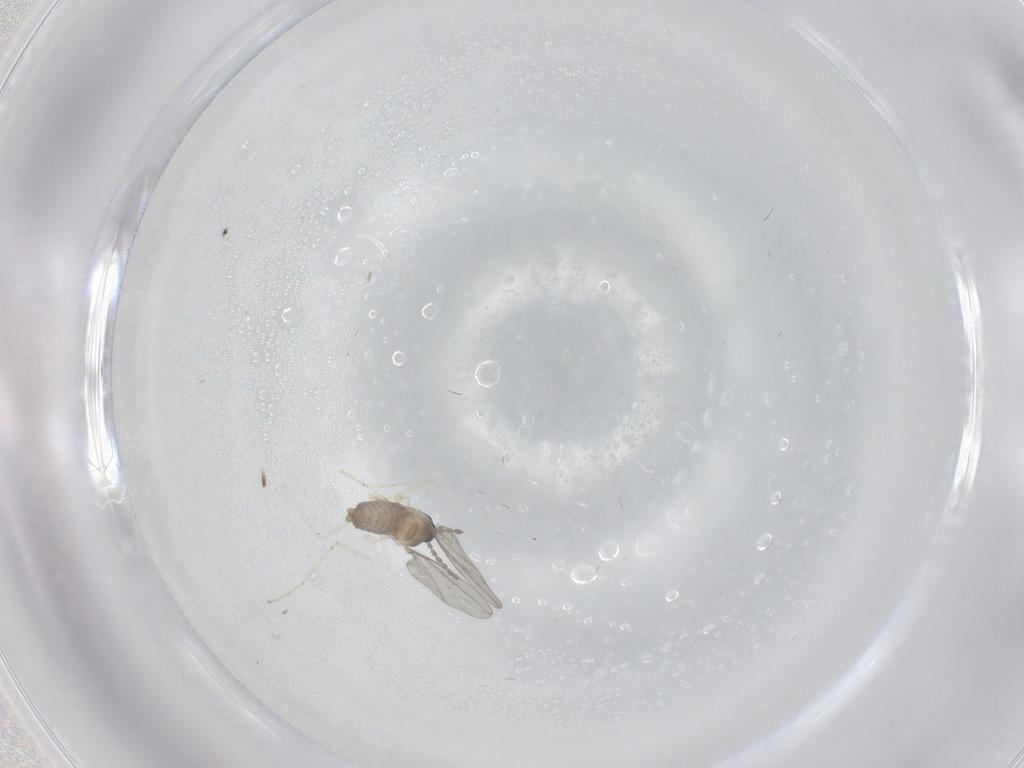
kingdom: Animalia
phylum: Arthropoda
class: Insecta
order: Diptera
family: Cecidomyiidae
